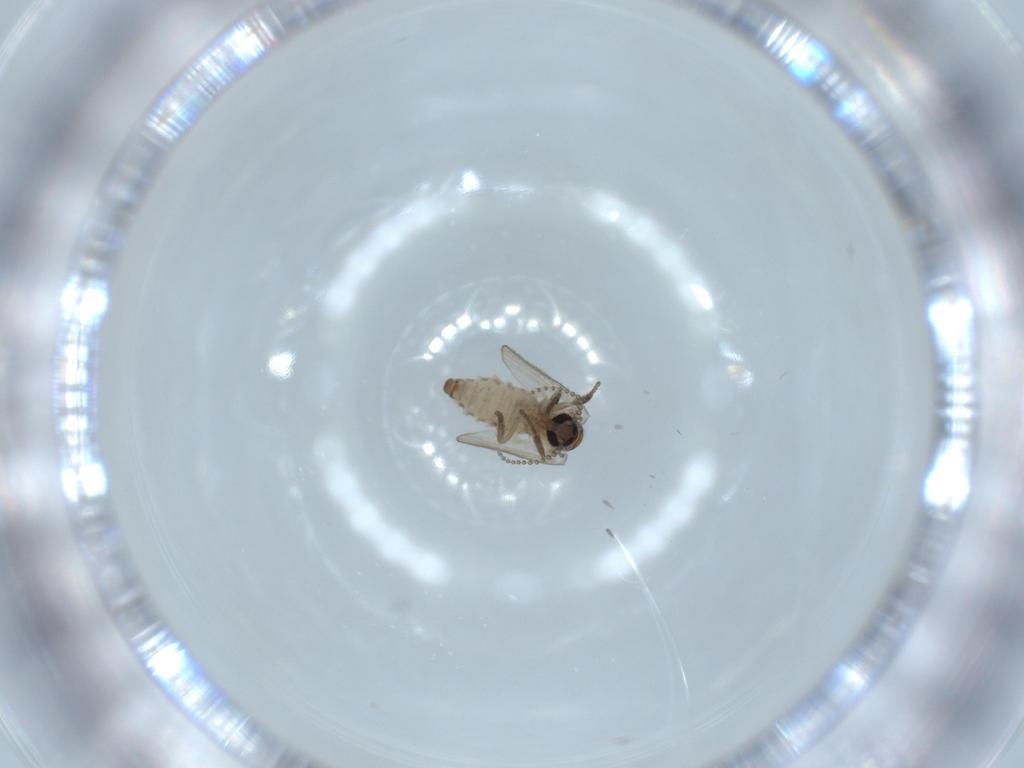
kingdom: Animalia
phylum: Arthropoda
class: Insecta
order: Diptera
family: Psychodidae
